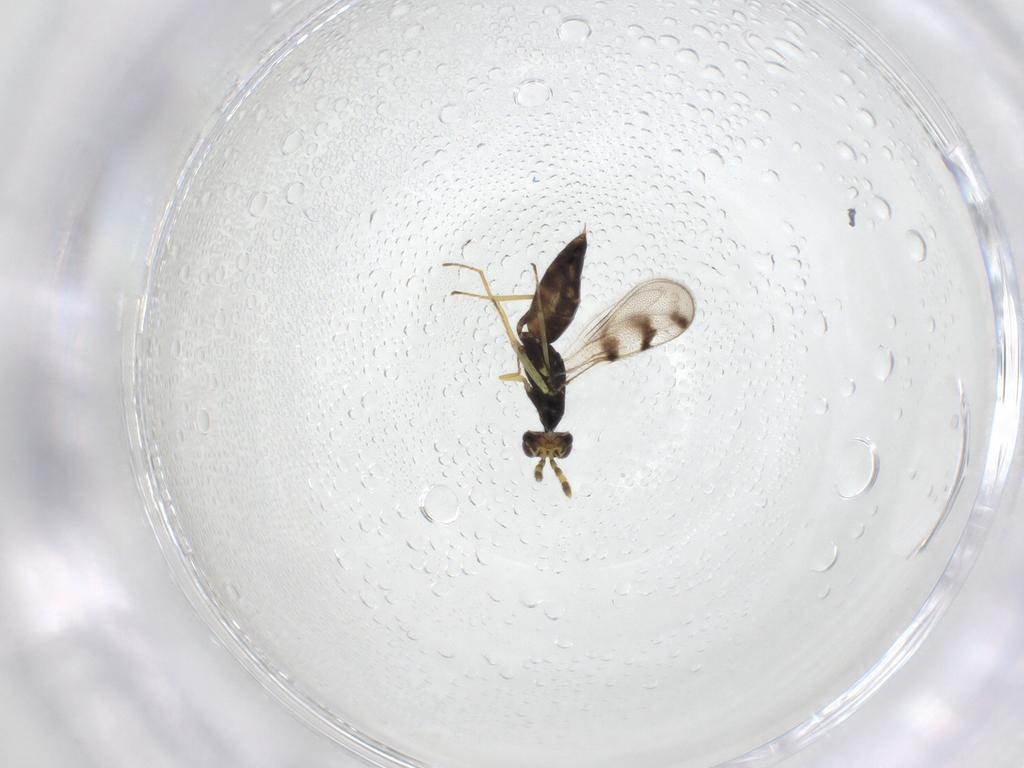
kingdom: Animalia
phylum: Arthropoda
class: Insecta
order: Hymenoptera
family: Eulophidae
